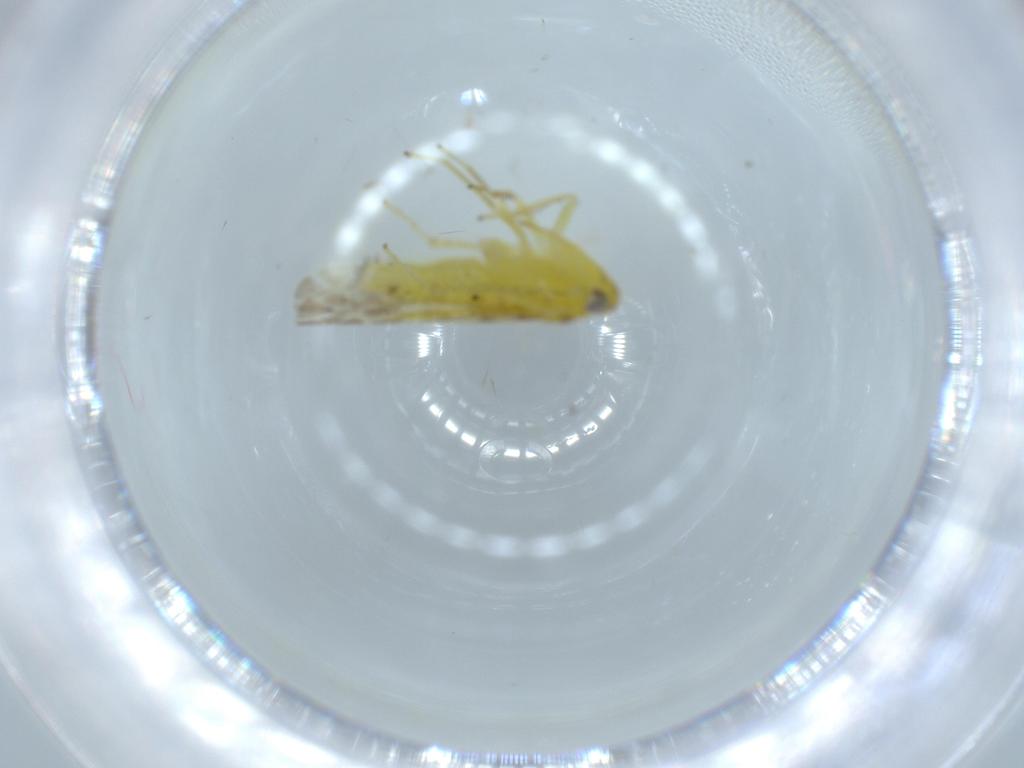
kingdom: Animalia
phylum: Arthropoda
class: Insecta
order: Hemiptera
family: Cicadellidae
